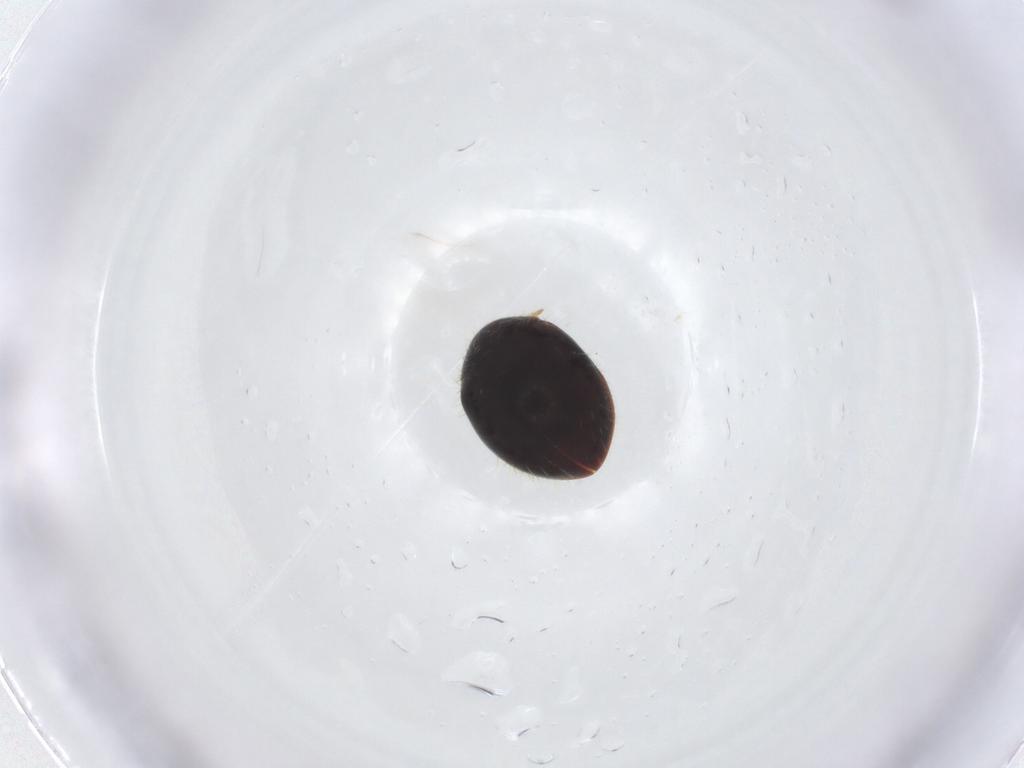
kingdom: Animalia
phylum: Arthropoda
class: Insecta
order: Coleoptera
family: Coccinellidae
